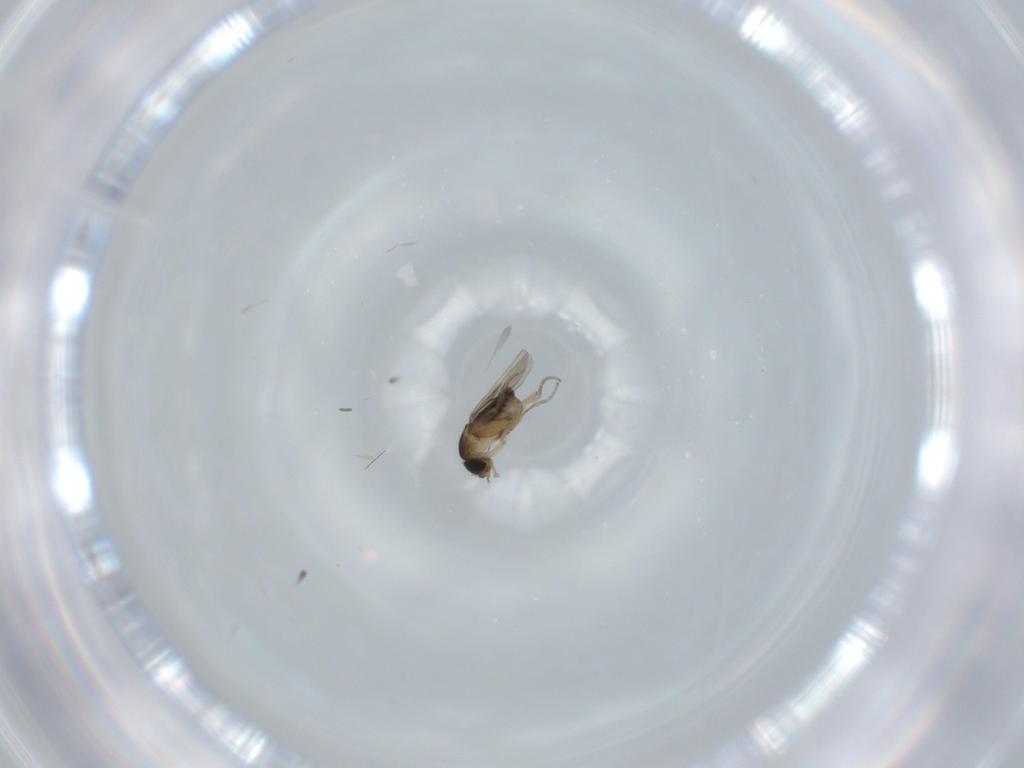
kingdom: Animalia
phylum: Arthropoda
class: Insecta
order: Diptera
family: Phoridae
